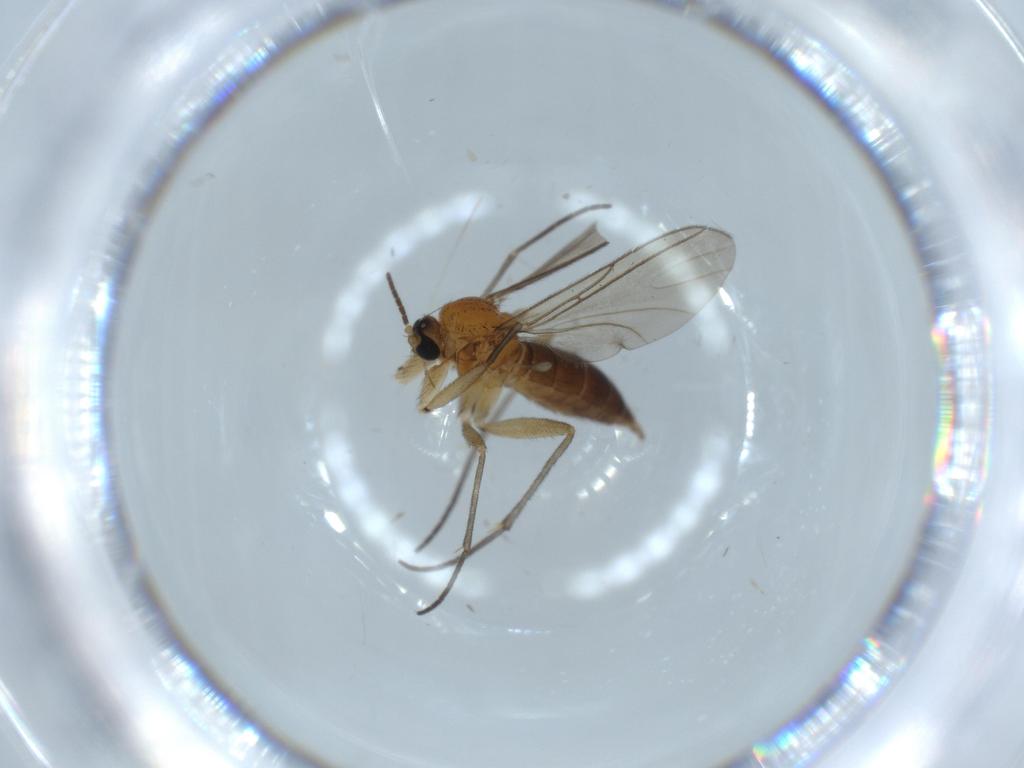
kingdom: Animalia
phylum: Arthropoda
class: Insecta
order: Diptera
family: Sciaridae
